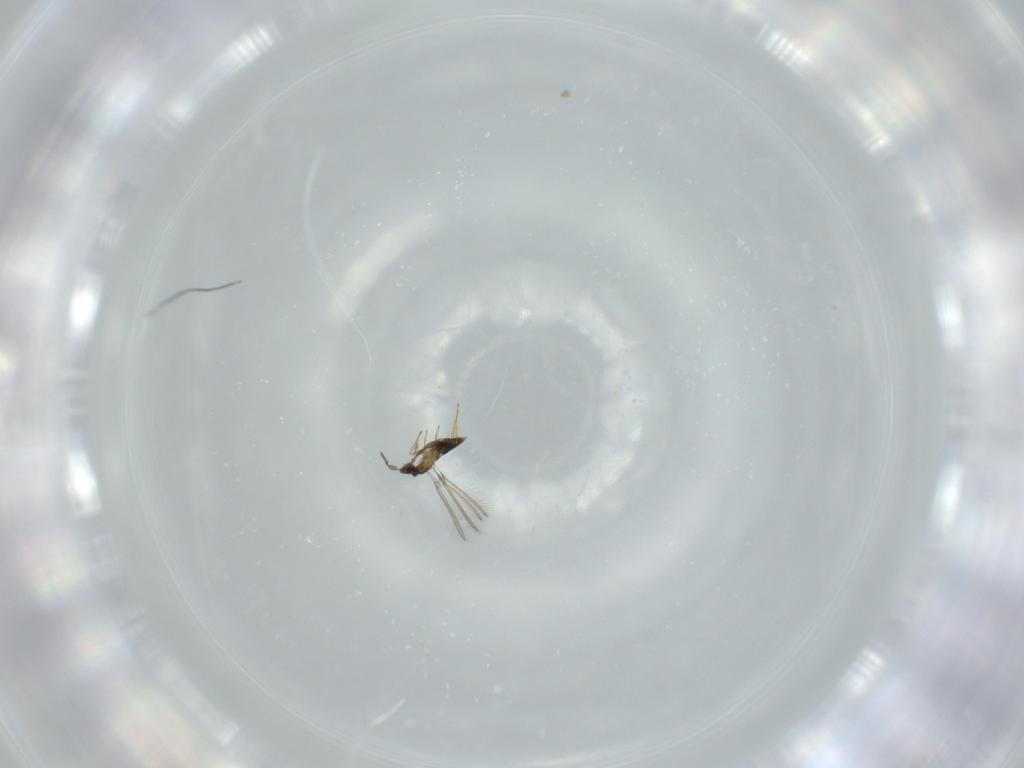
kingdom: Animalia
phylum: Arthropoda
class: Insecta
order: Hymenoptera
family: Mymaridae
